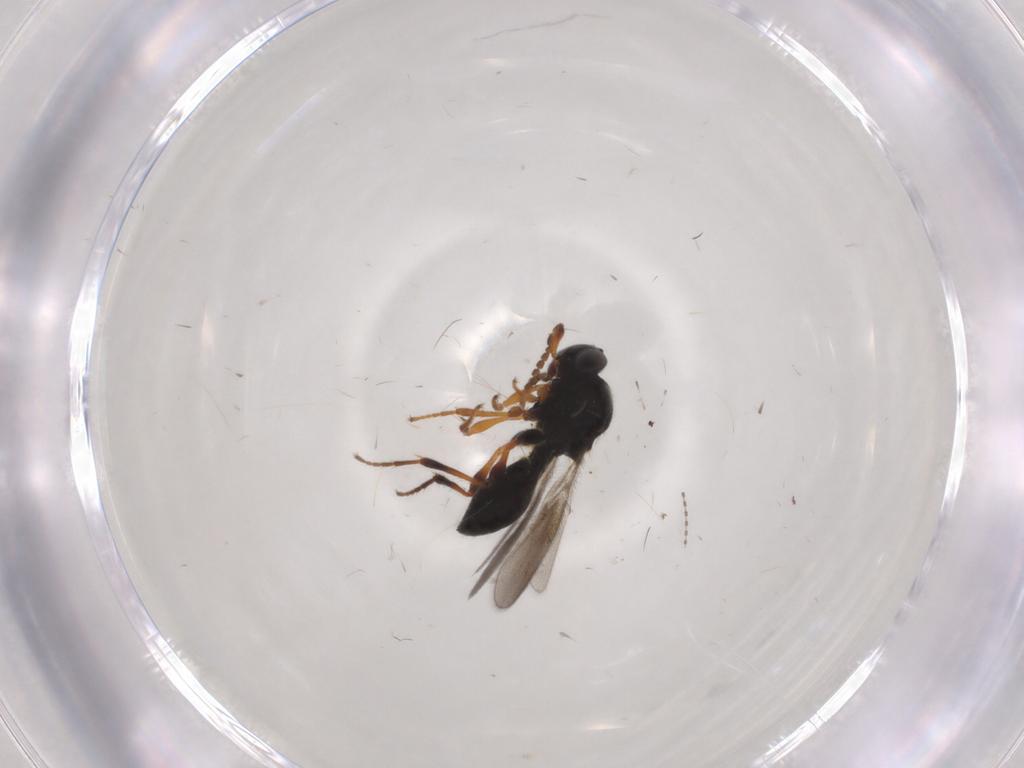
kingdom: Animalia
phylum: Arthropoda
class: Insecta
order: Hymenoptera
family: Platygastridae
